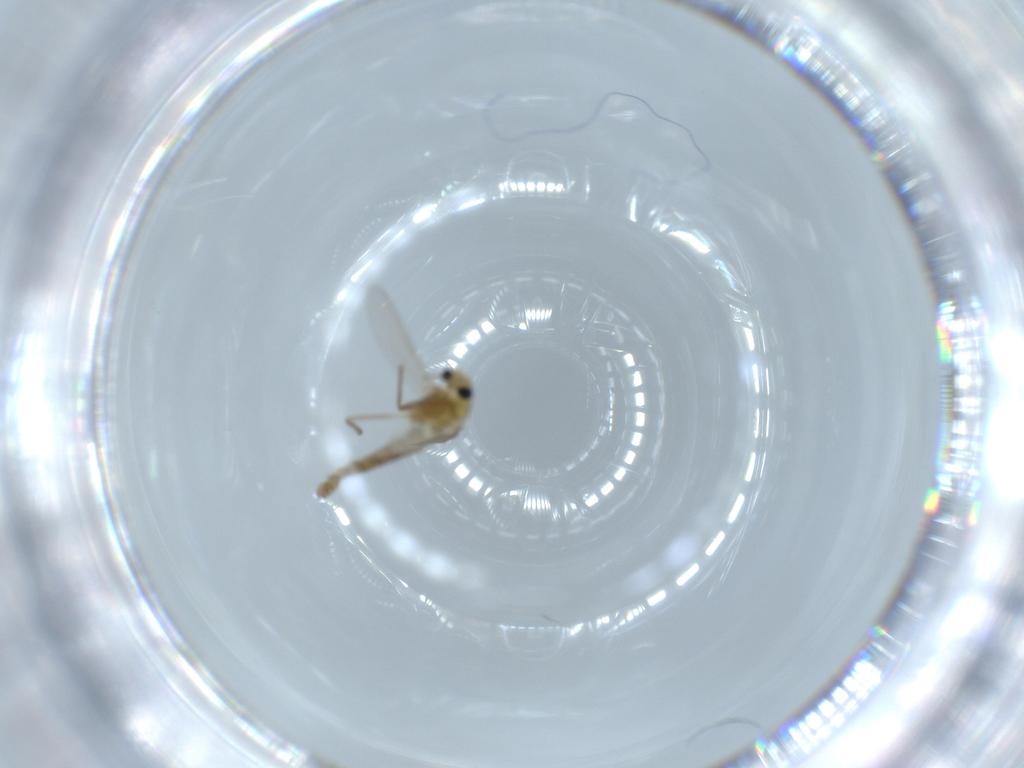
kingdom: Animalia
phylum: Arthropoda
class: Insecta
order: Diptera
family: Chironomidae
